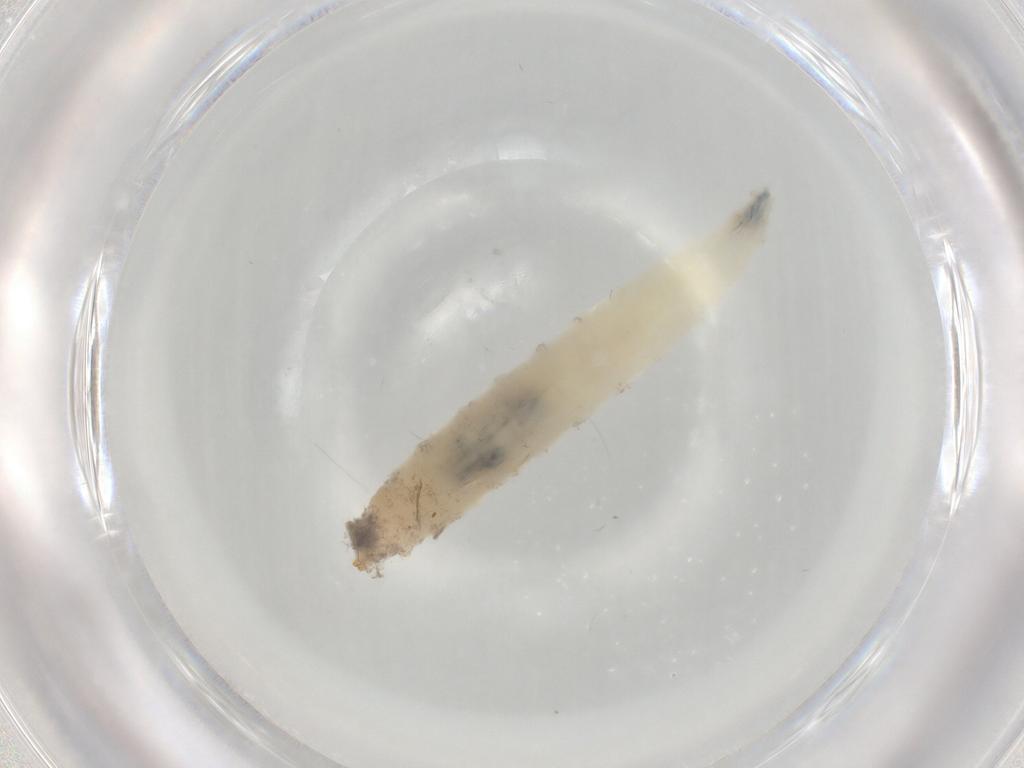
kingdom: Animalia
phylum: Arthropoda
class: Insecta
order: Diptera
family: Drosophilidae
